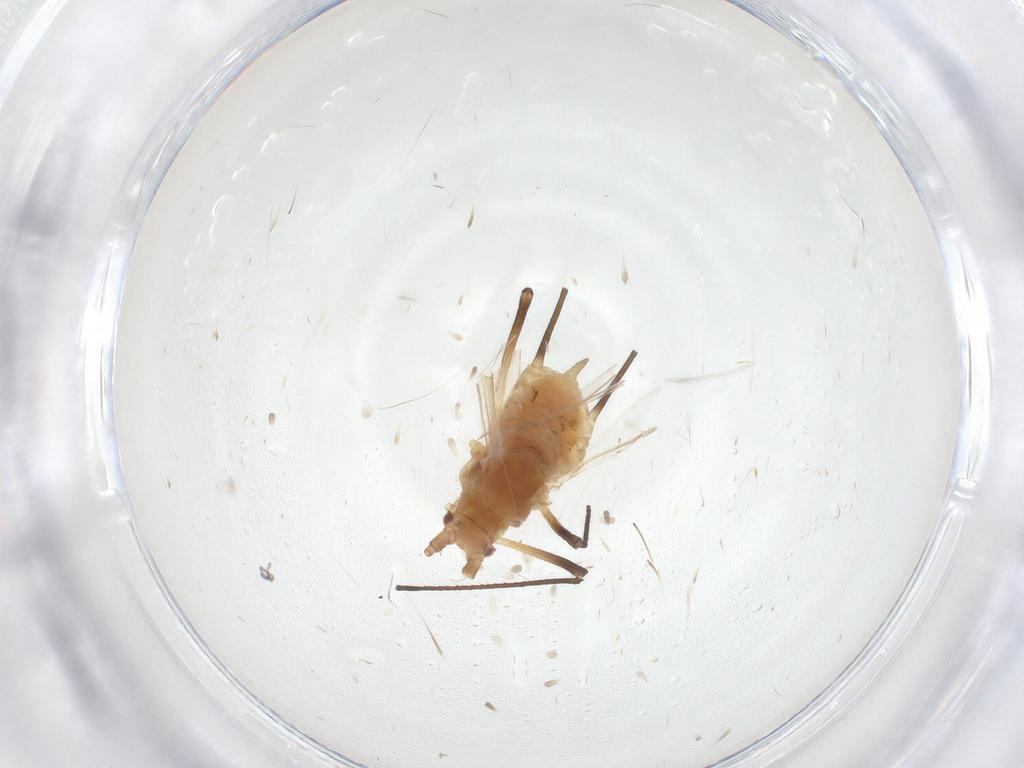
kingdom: Animalia
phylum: Arthropoda
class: Insecta
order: Hemiptera
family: Aphididae
